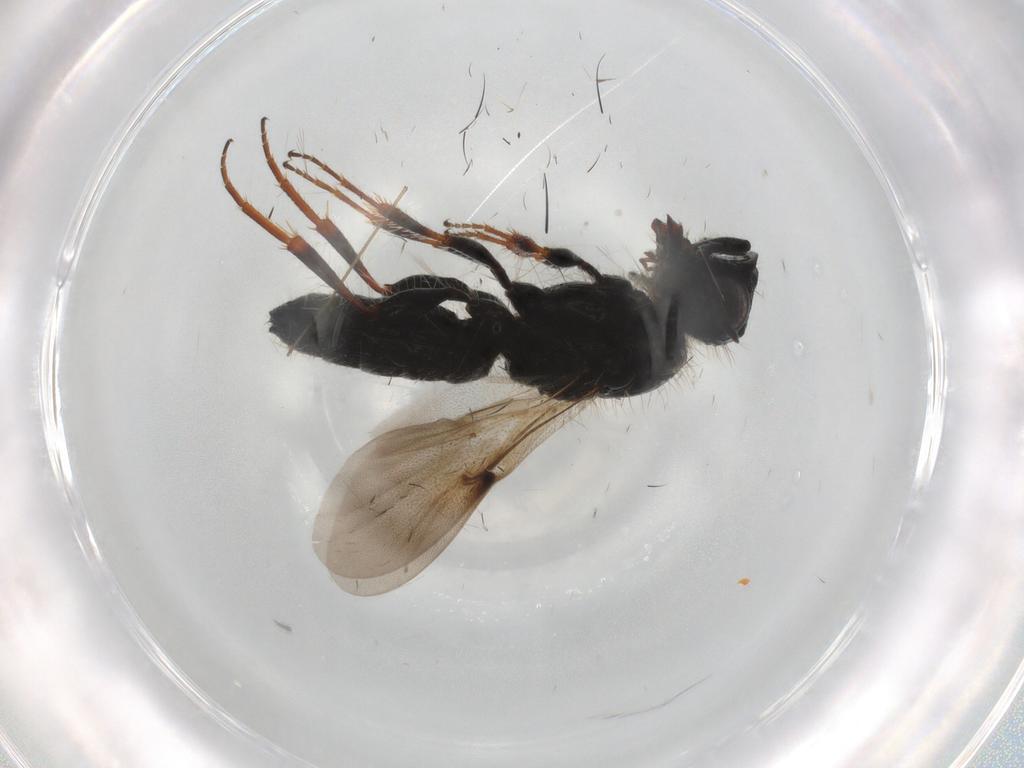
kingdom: Animalia
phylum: Arthropoda
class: Insecta
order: Hymenoptera
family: Scelionidae
